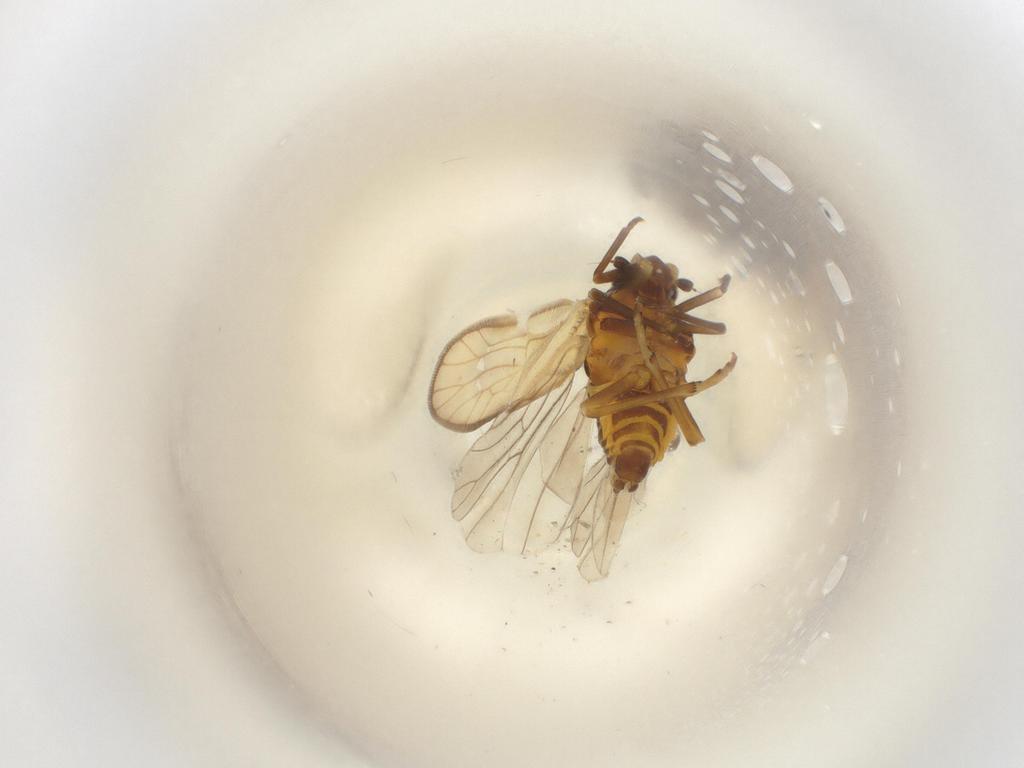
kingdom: Animalia
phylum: Arthropoda
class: Insecta
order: Hemiptera
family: Meenoplidae
